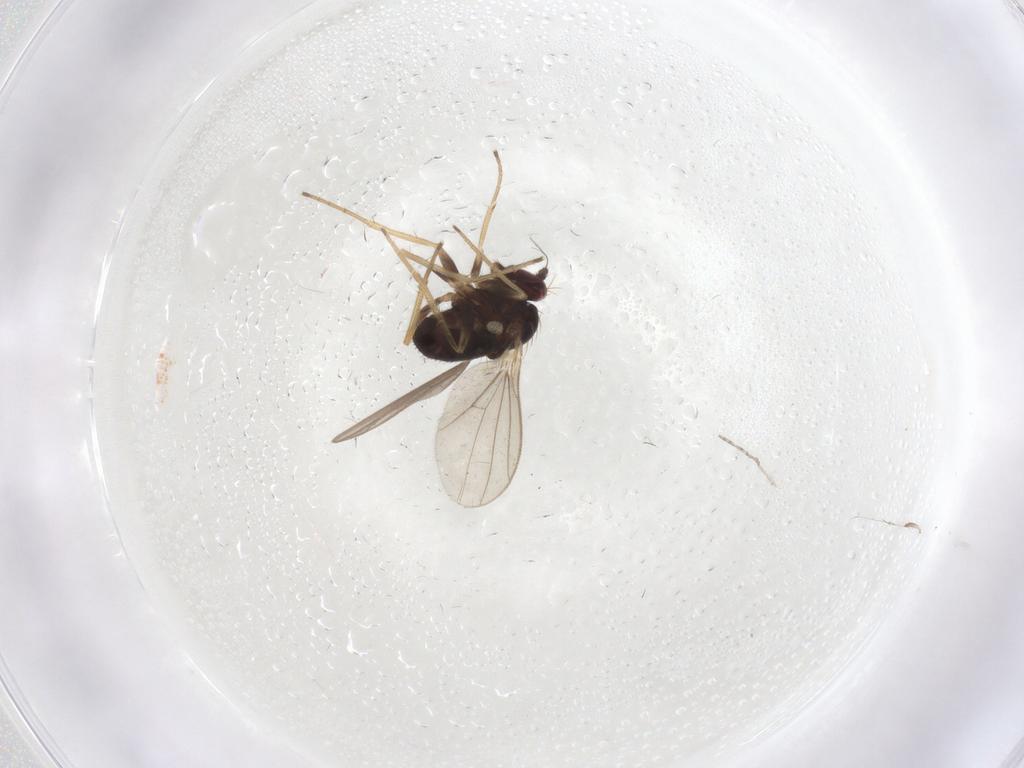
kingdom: Animalia
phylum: Arthropoda
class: Insecta
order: Diptera
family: Dolichopodidae
